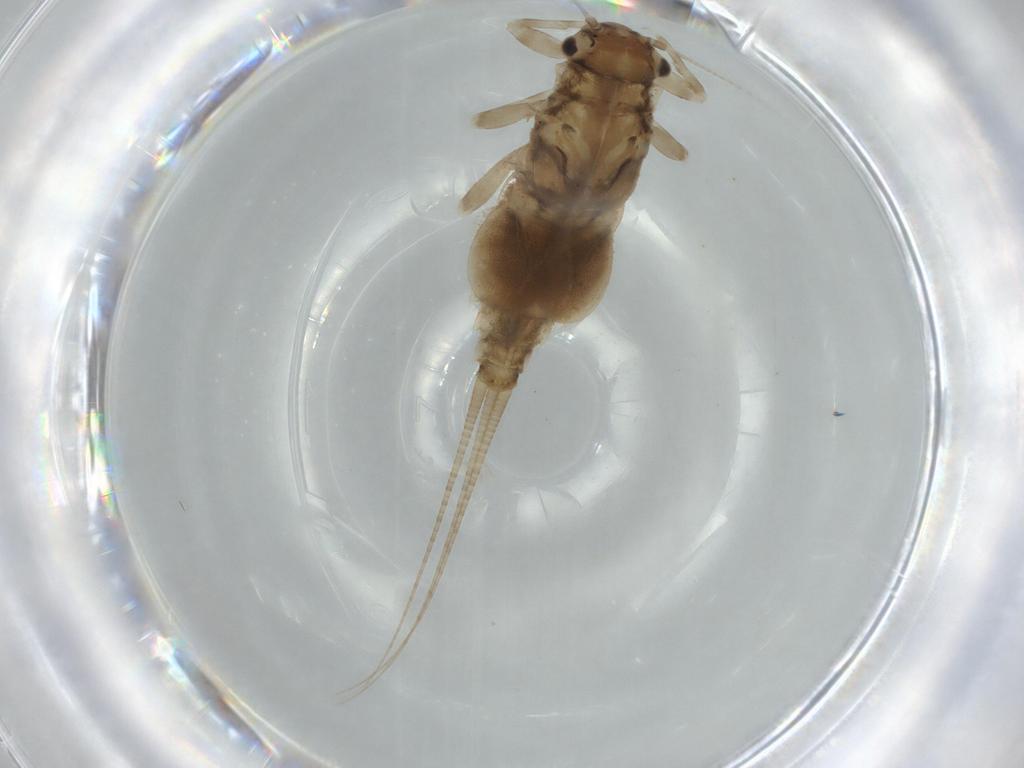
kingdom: Animalia
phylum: Arthropoda
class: Insecta
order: Ephemeroptera
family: Caenidae
